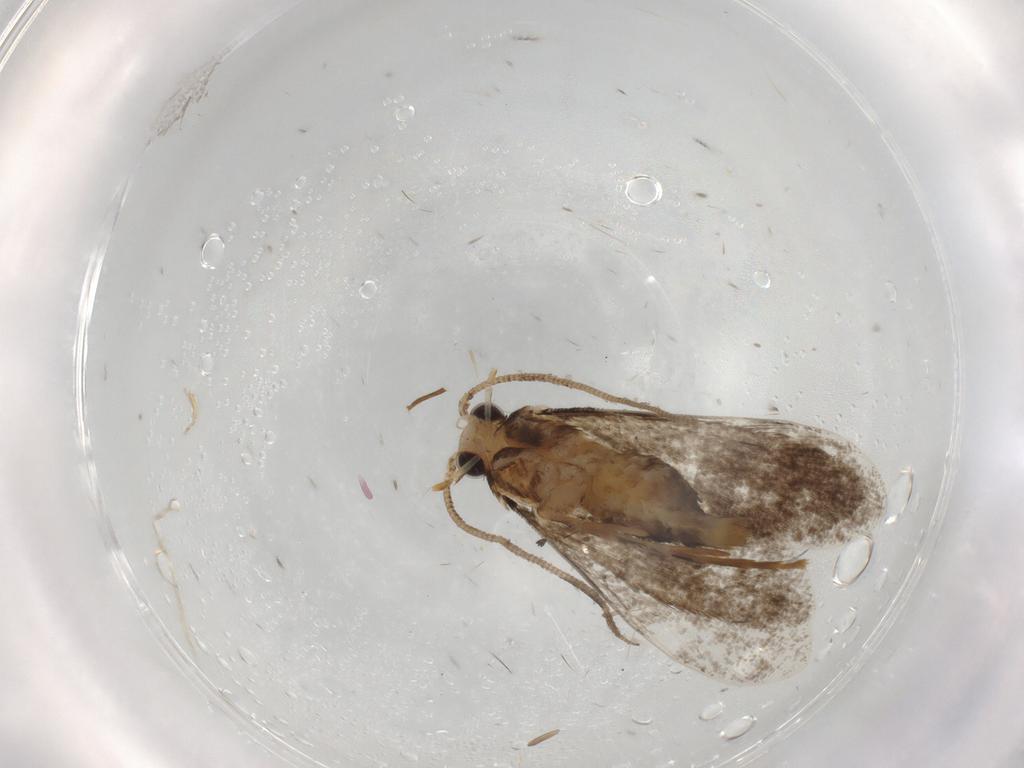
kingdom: Animalia
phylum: Arthropoda
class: Insecta
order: Lepidoptera
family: Tineidae
